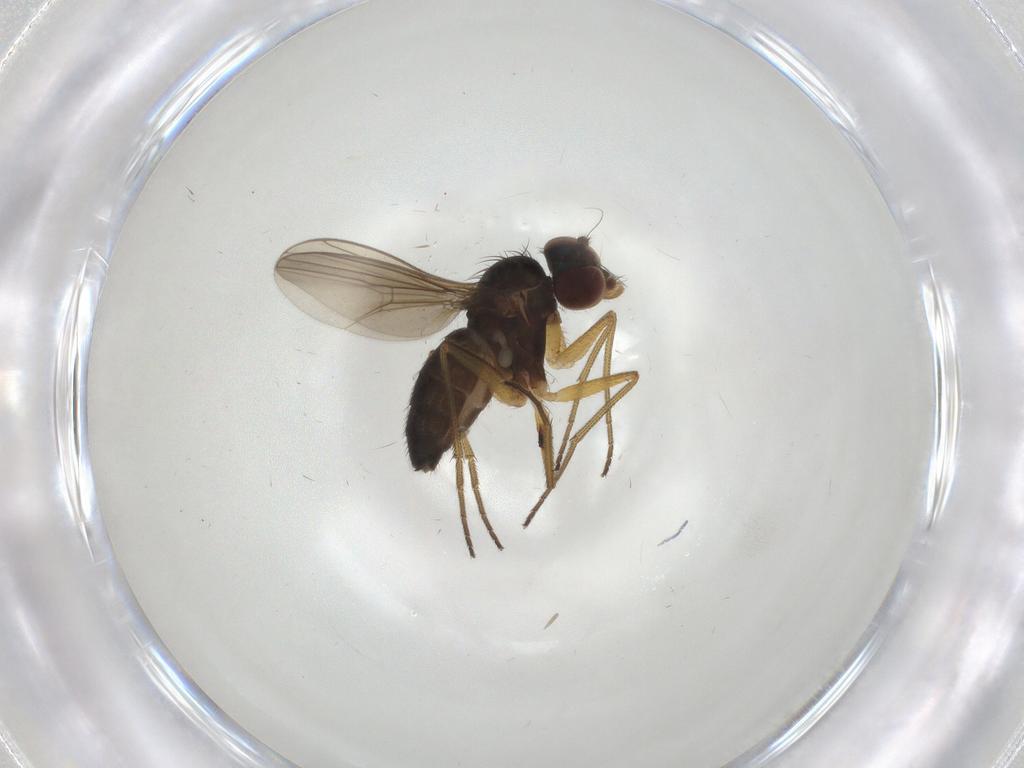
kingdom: Animalia
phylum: Arthropoda
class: Insecta
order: Diptera
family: Dolichopodidae
